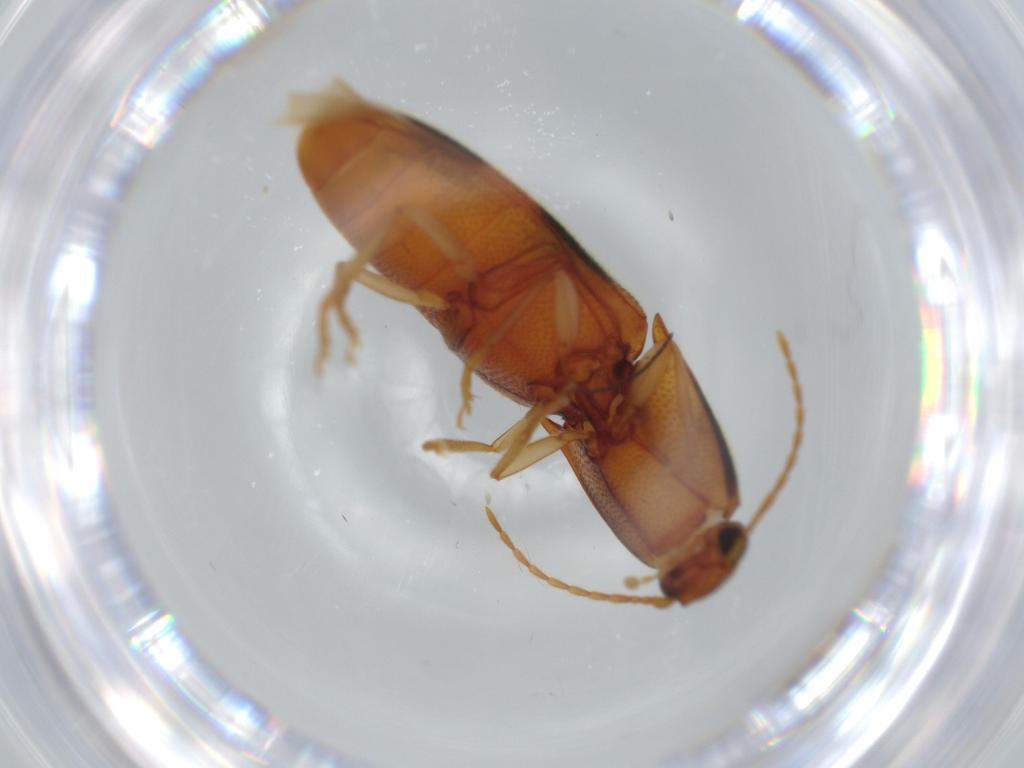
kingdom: Animalia
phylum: Arthropoda
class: Insecta
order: Coleoptera
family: Elateridae
